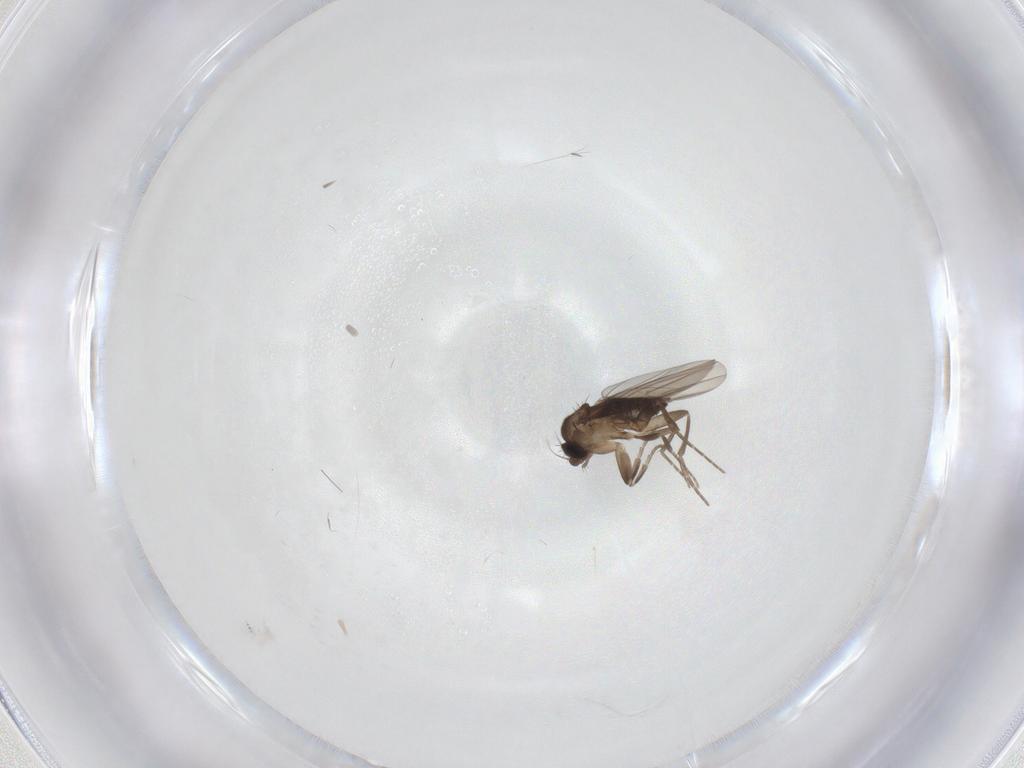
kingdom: Animalia
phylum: Arthropoda
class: Insecta
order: Diptera
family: Phoridae
